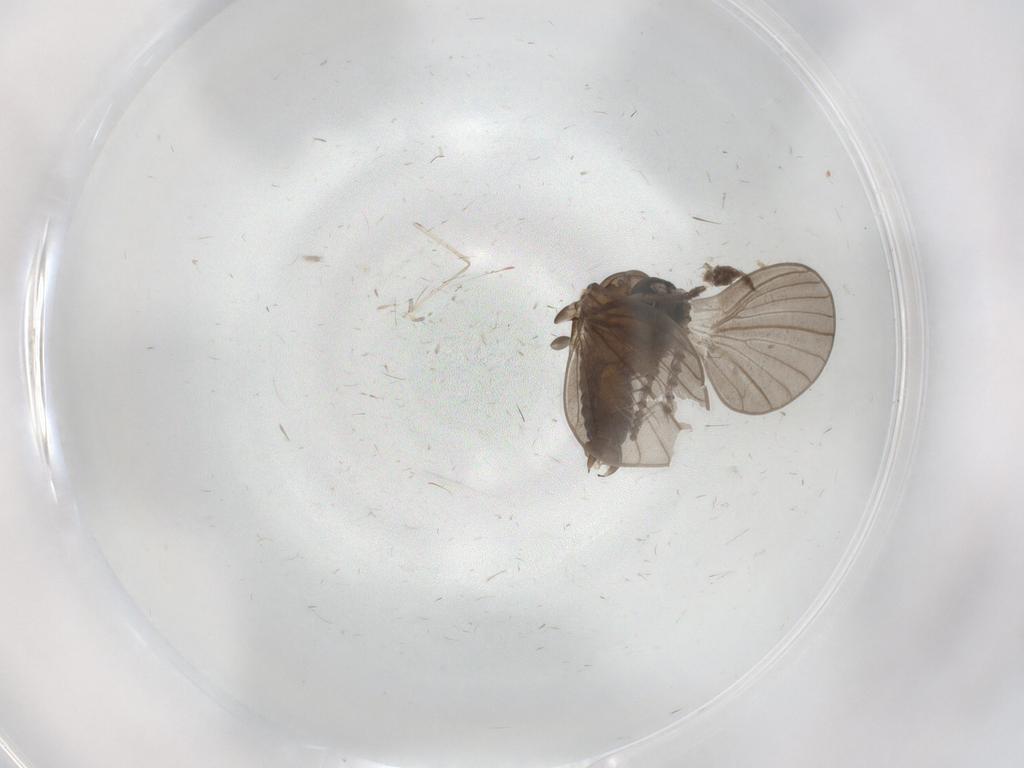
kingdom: Animalia
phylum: Arthropoda
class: Insecta
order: Diptera
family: Psychodidae
